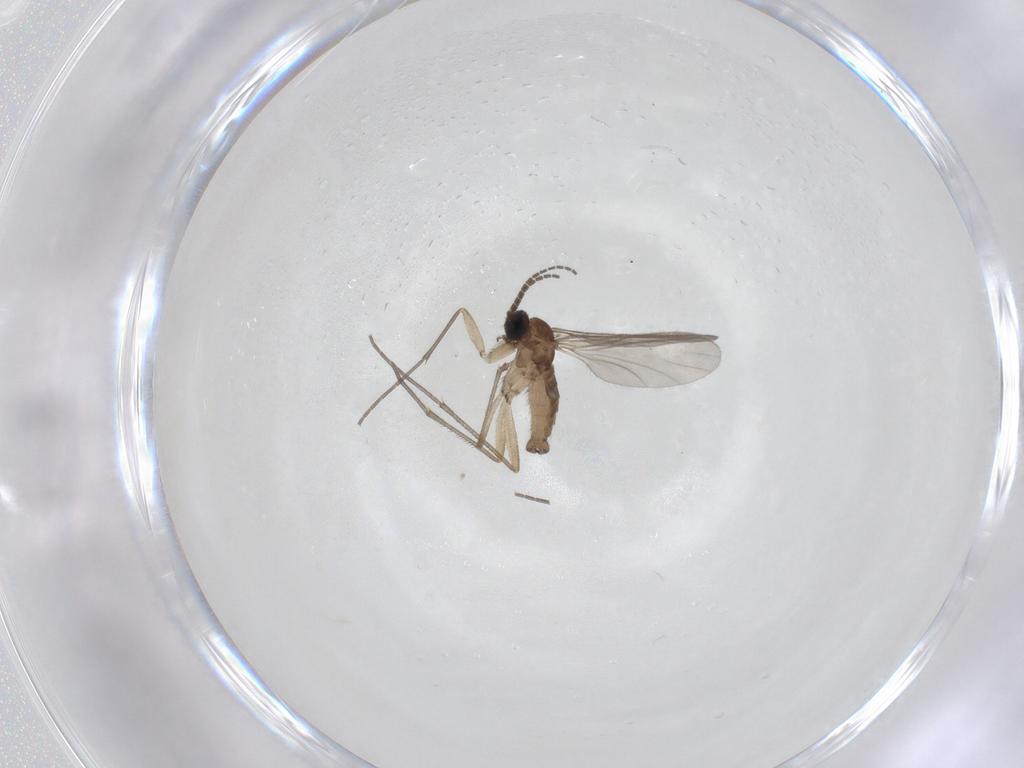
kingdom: Animalia
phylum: Arthropoda
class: Insecta
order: Diptera
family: Sciaridae
